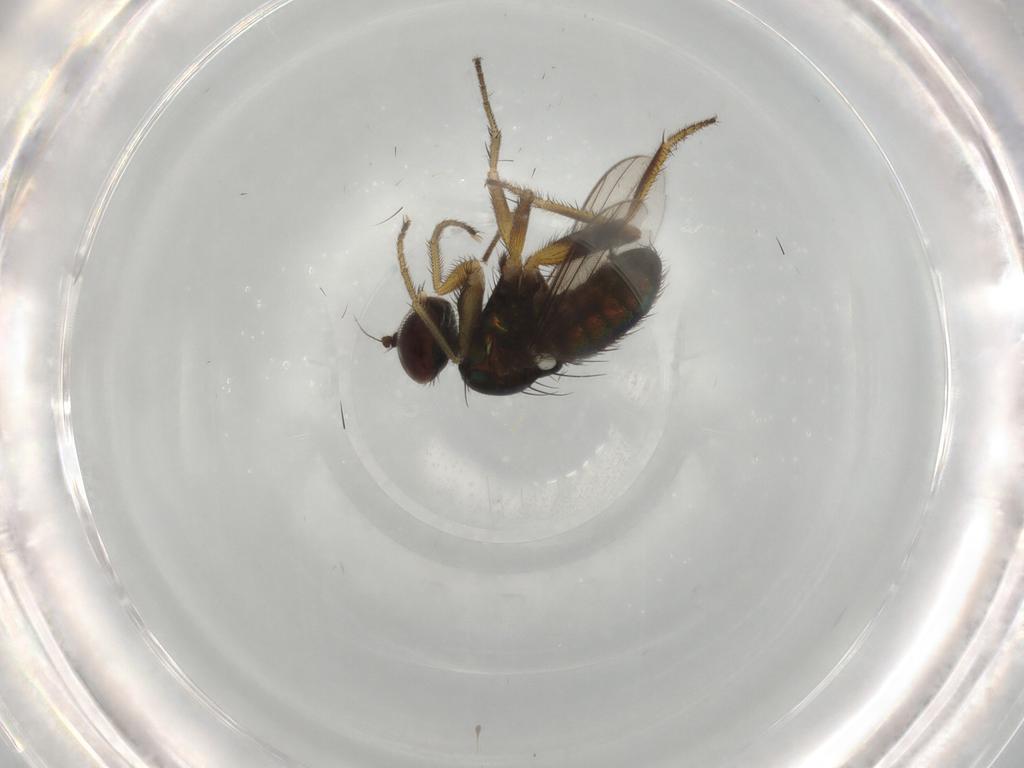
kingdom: Animalia
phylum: Arthropoda
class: Insecta
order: Diptera
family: Dolichopodidae
